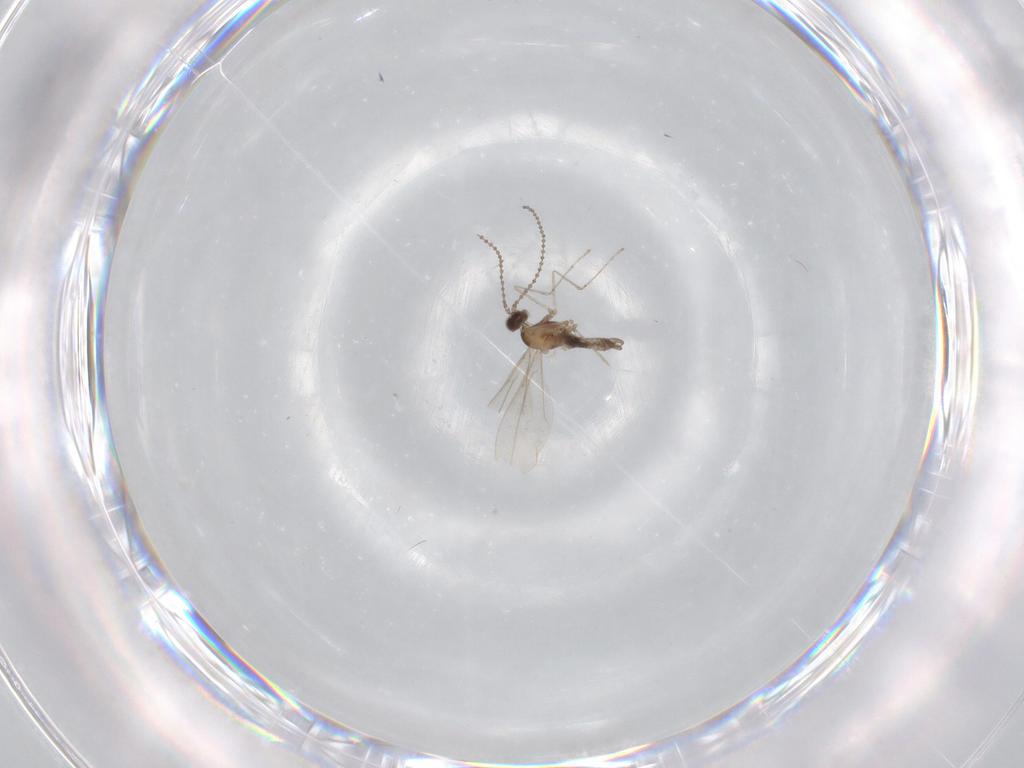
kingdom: Animalia
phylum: Arthropoda
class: Insecta
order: Diptera
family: Cecidomyiidae
